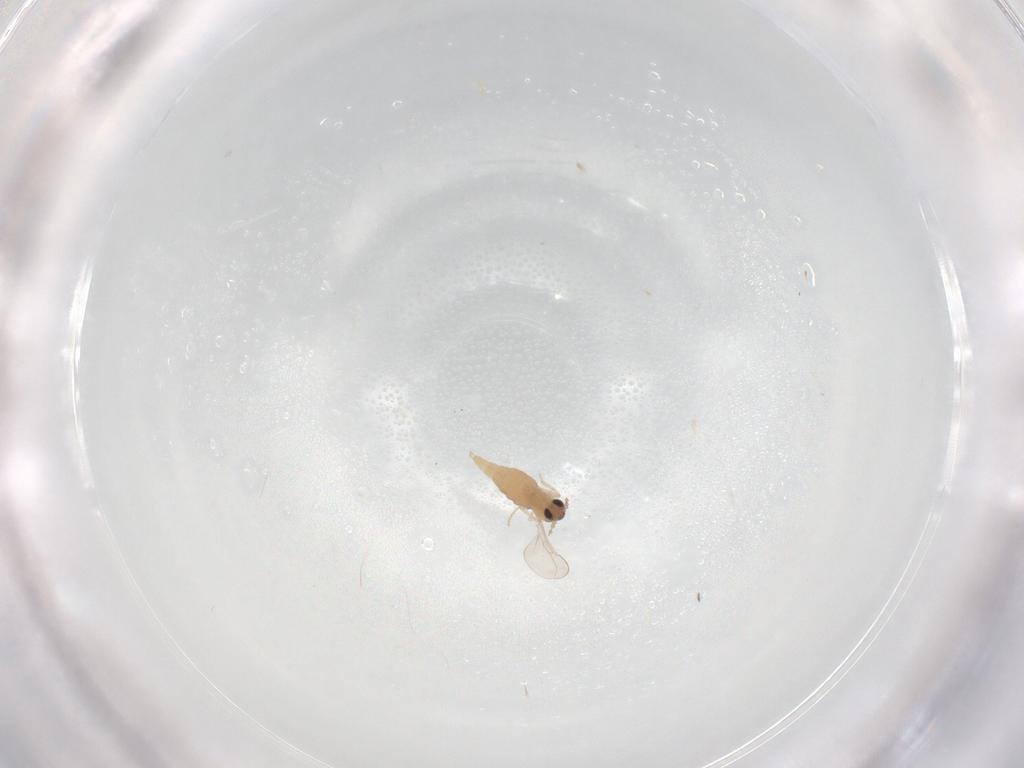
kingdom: Animalia
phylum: Arthropoda
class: Insecta
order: Diptera
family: Cecidomyiidae
